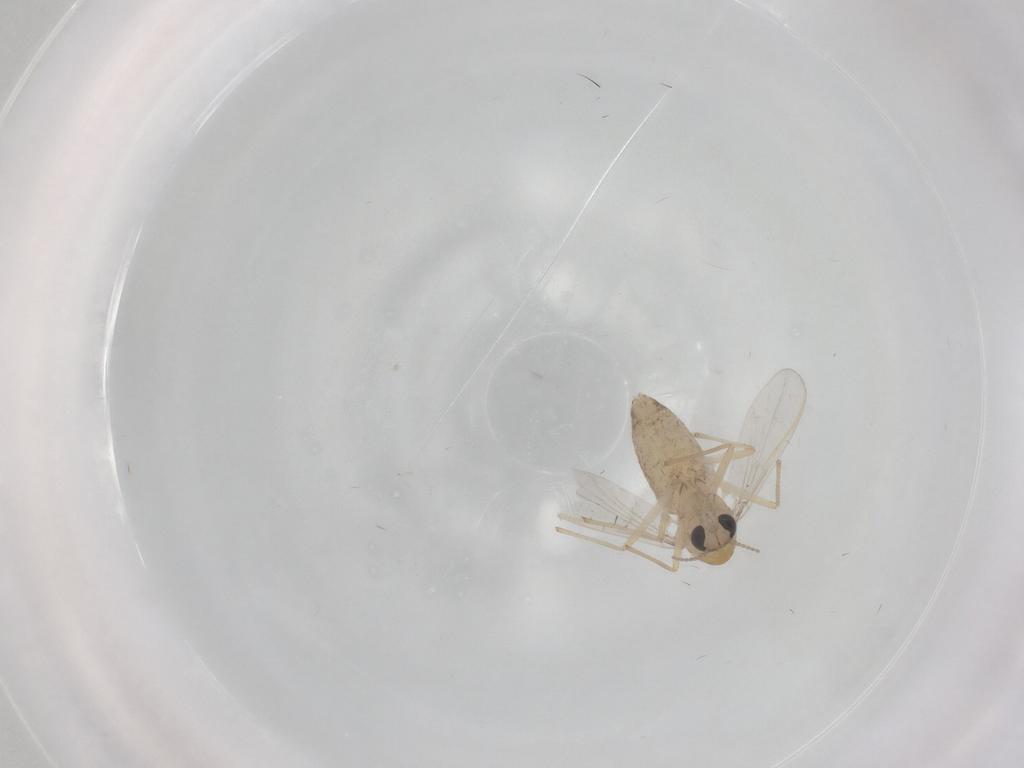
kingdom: Animalia
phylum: Arthropoda
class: Insecta
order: Diptera
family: Chironomidae
